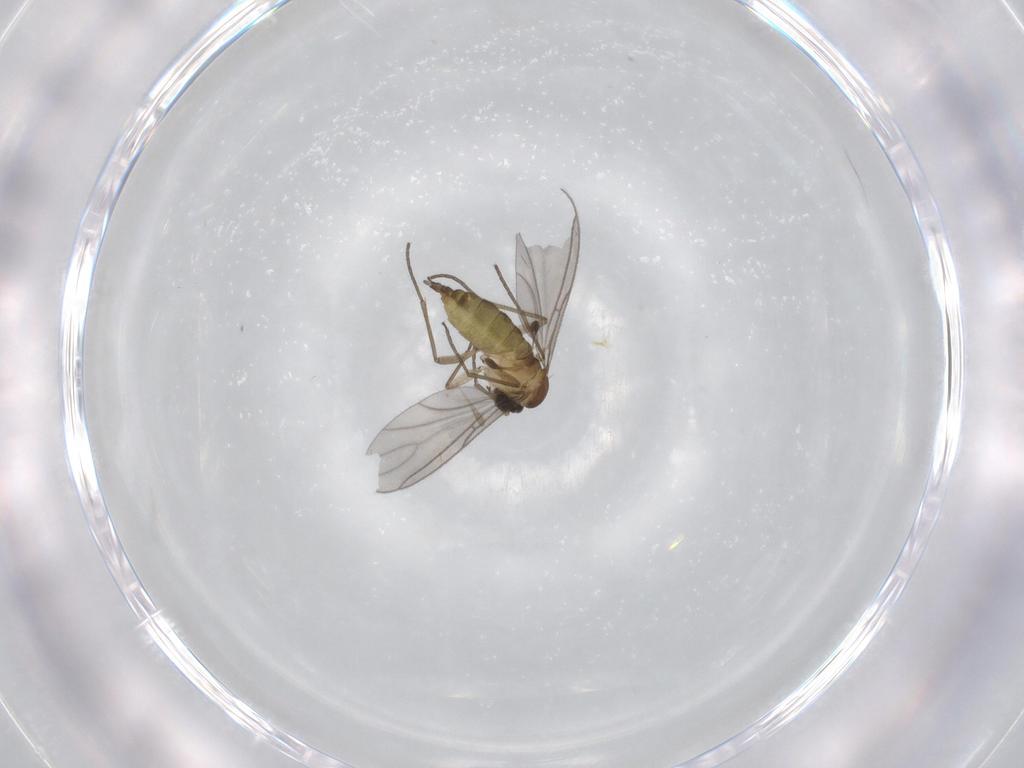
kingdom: Animalia
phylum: Arthropoda
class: Insecta
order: Diptera
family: Sciaridae
